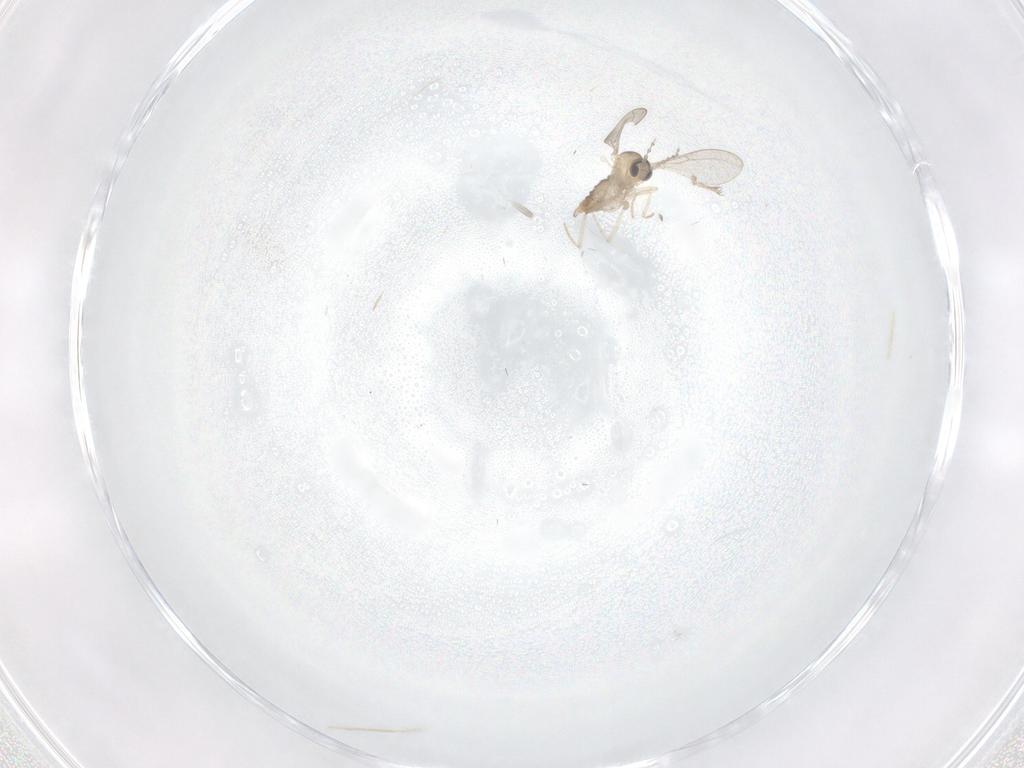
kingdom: Animalia
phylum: Arthropoda
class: Insecta
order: Diptera
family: Cecidomyiidae
